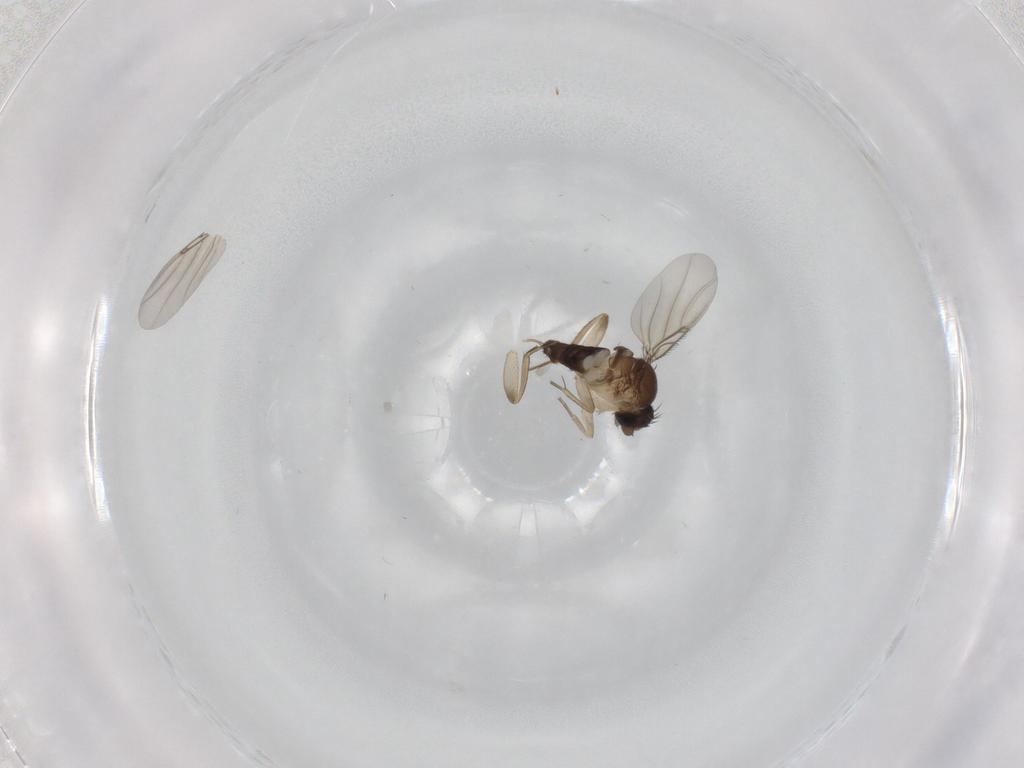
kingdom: Animalia
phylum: Arthropoda
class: Insecta
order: Diptera
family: Phoridae
